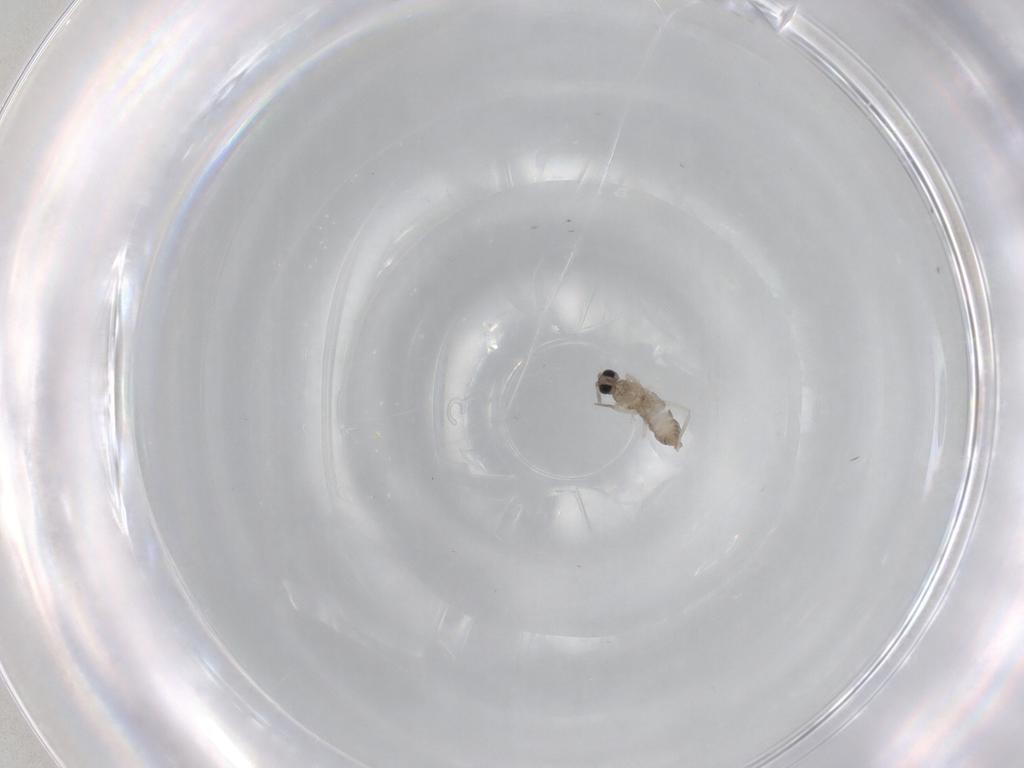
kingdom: Animalia
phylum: Arthropoda
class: Insecta
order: Diptera
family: Cecidomyiidae
